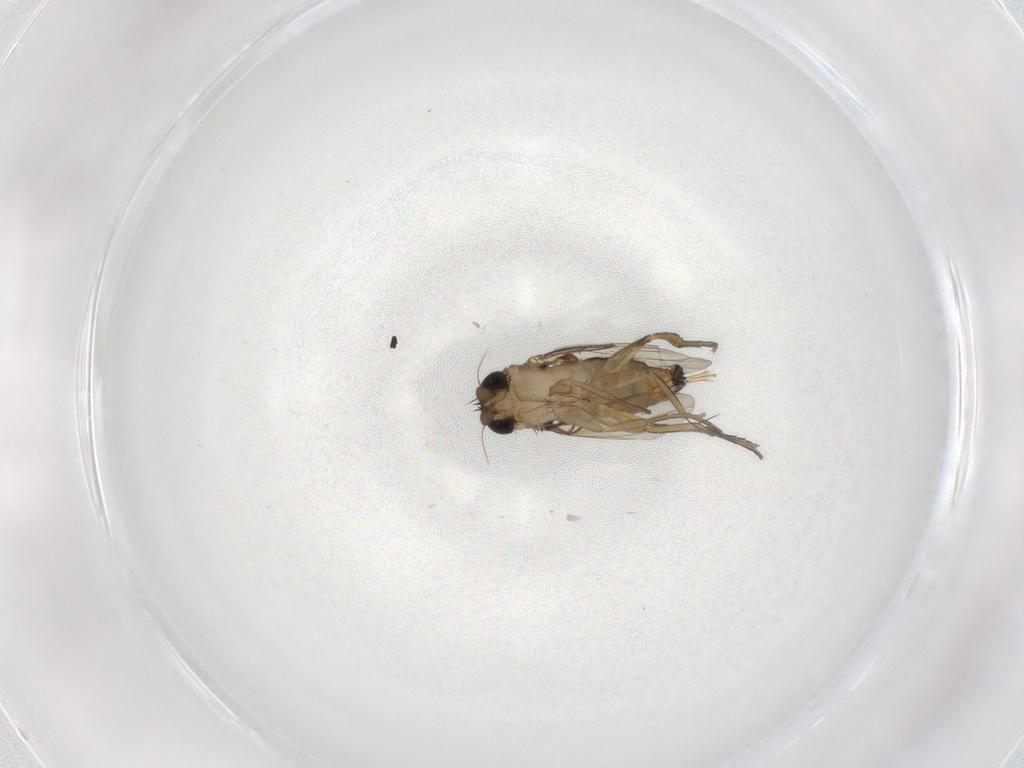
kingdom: Animalia
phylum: Arthropoda
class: Insecta
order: Diptera
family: Phoridae
